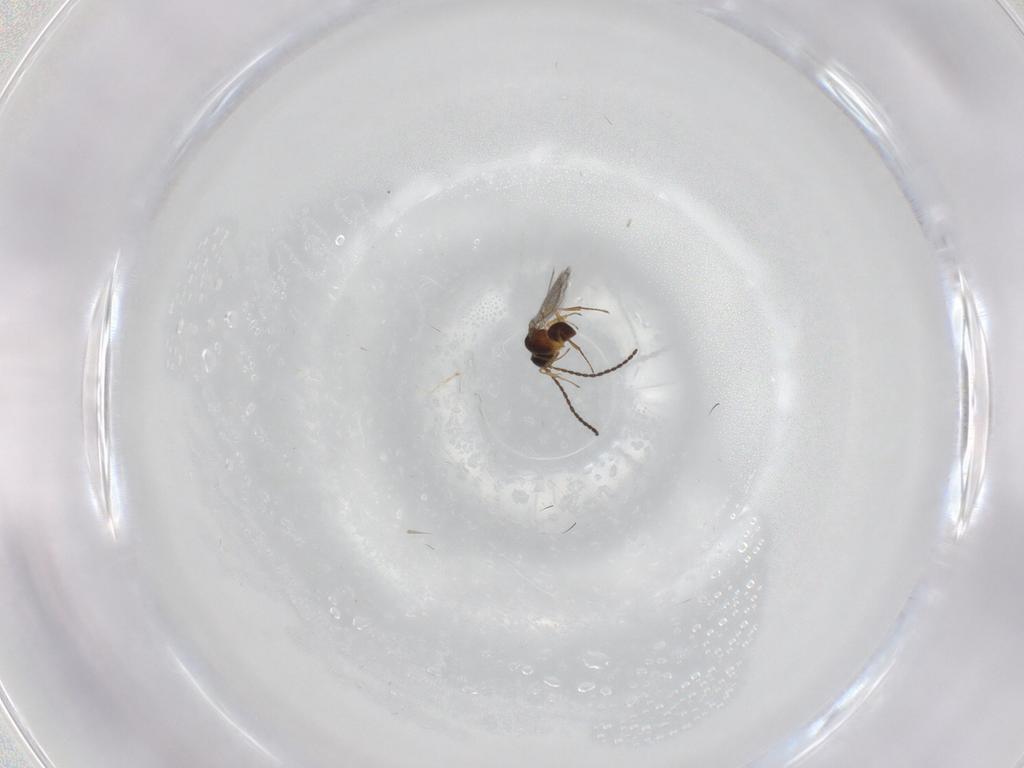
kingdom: Animalia
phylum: Arthropoda
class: Insecta
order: Hymenoptera
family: Figitidae
